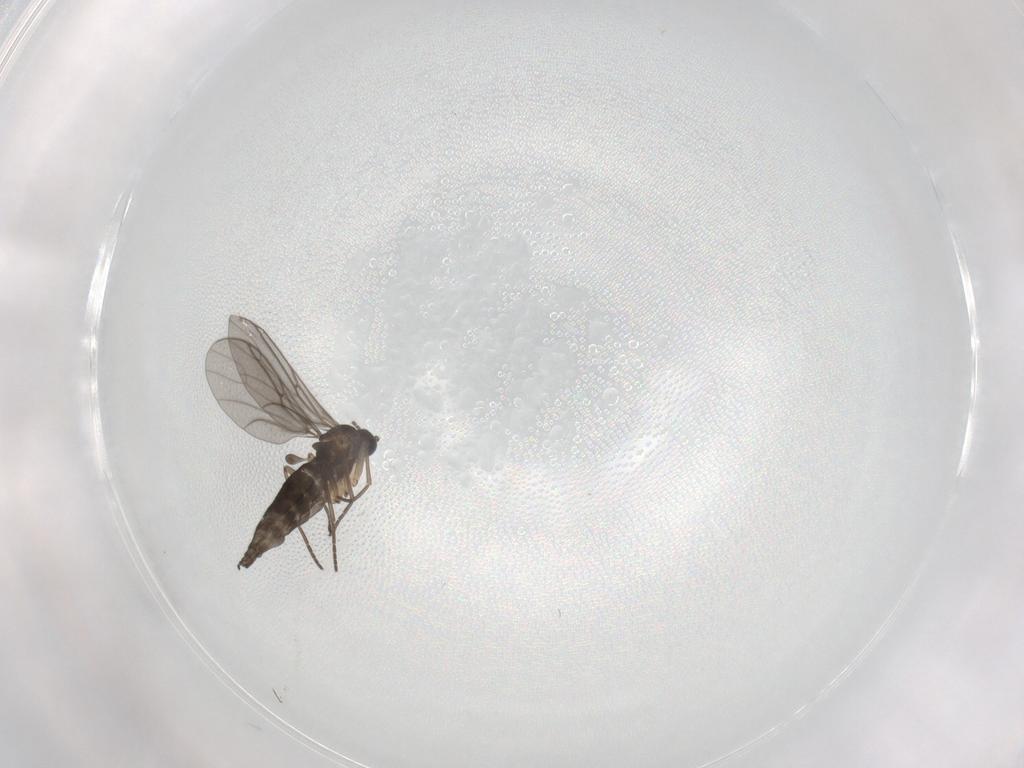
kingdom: Animalia
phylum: Arthropoda
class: Insecta
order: Diptera
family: Sciaridae
